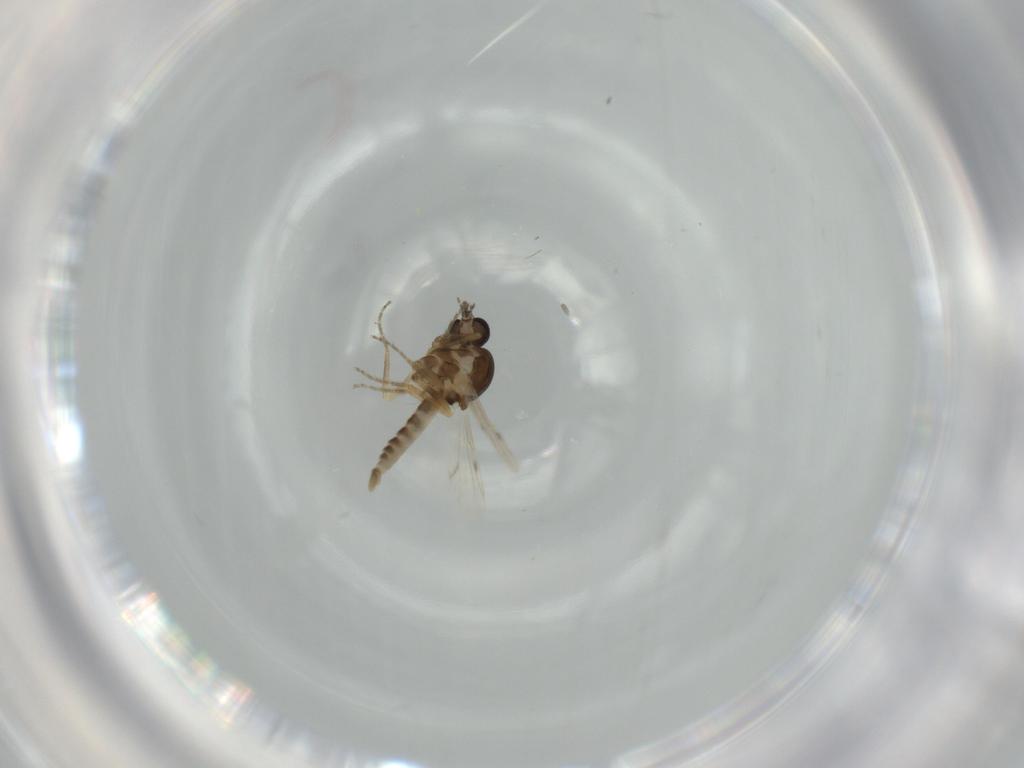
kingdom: Animalia
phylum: Arthropoda
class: Insecta
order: Diptera
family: Ceratopogonidae
